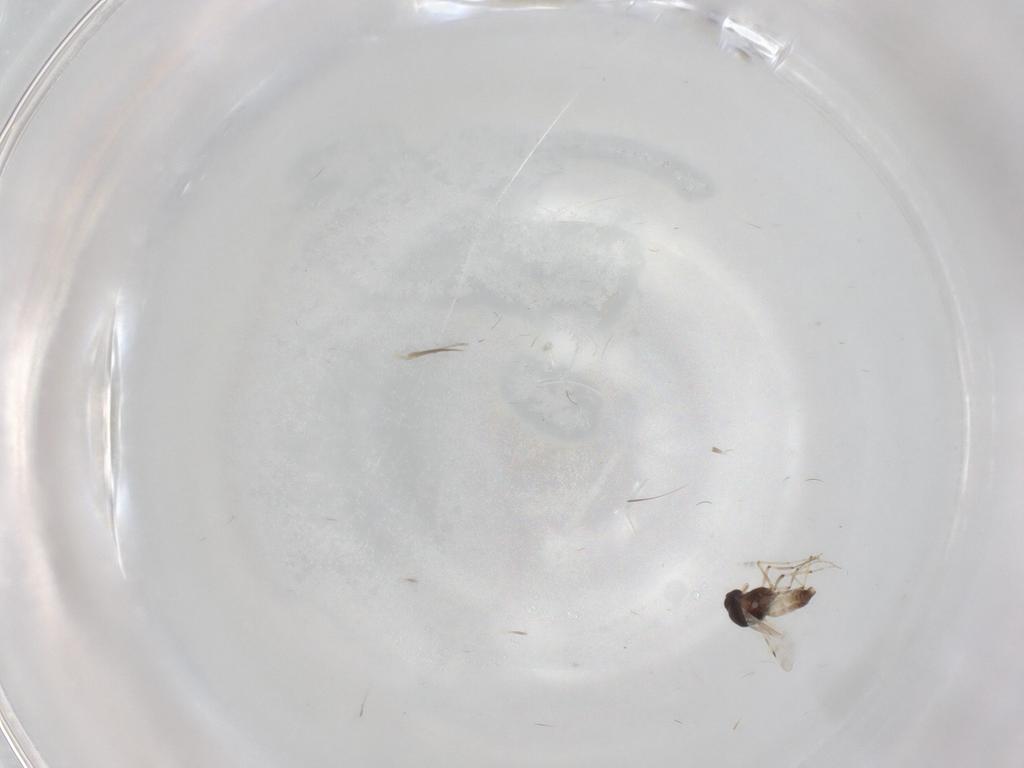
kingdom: Animalia
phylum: Arthropoda
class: Insecta
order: Diptera
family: Cecidomyiidae
